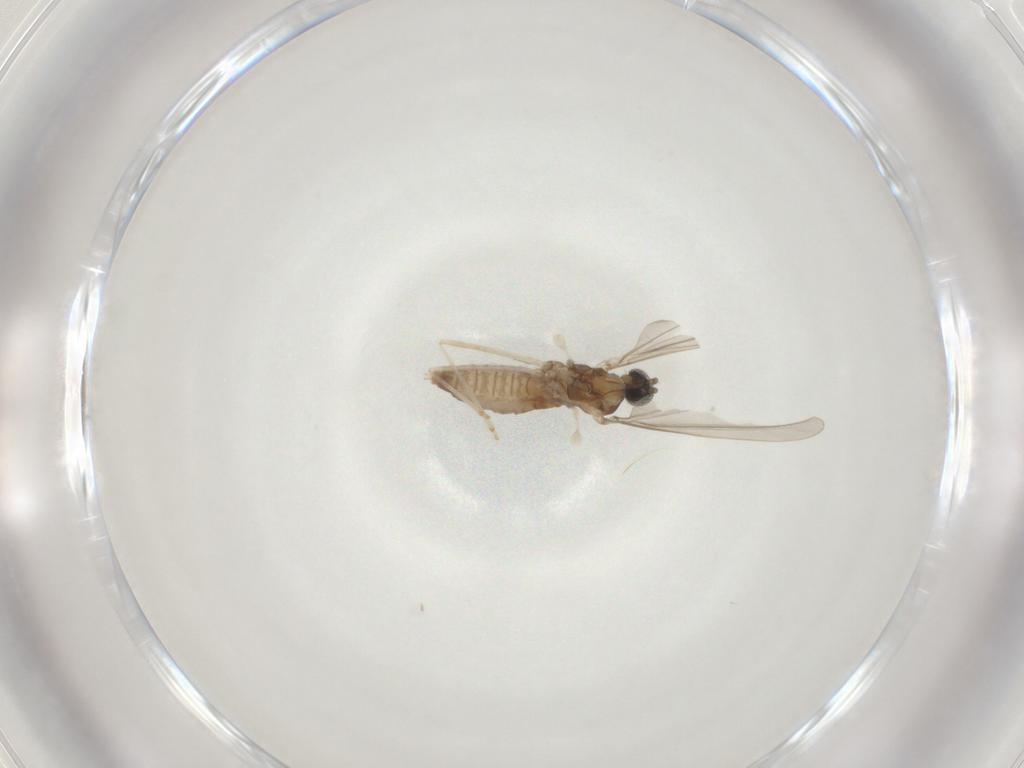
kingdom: Animalia
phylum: Arthropoda
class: Insecta
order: Diptera
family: Cecidomyiidae
